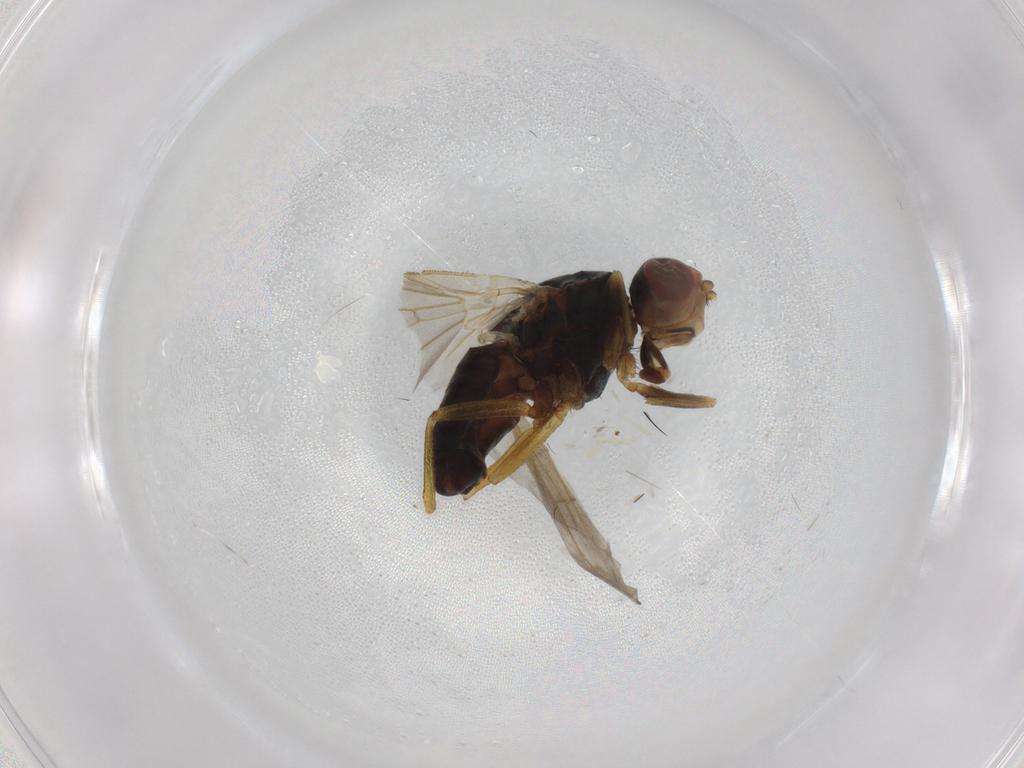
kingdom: Animalia
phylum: Arthropoda
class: Insecta
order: Diptera
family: Heleomyzidae
